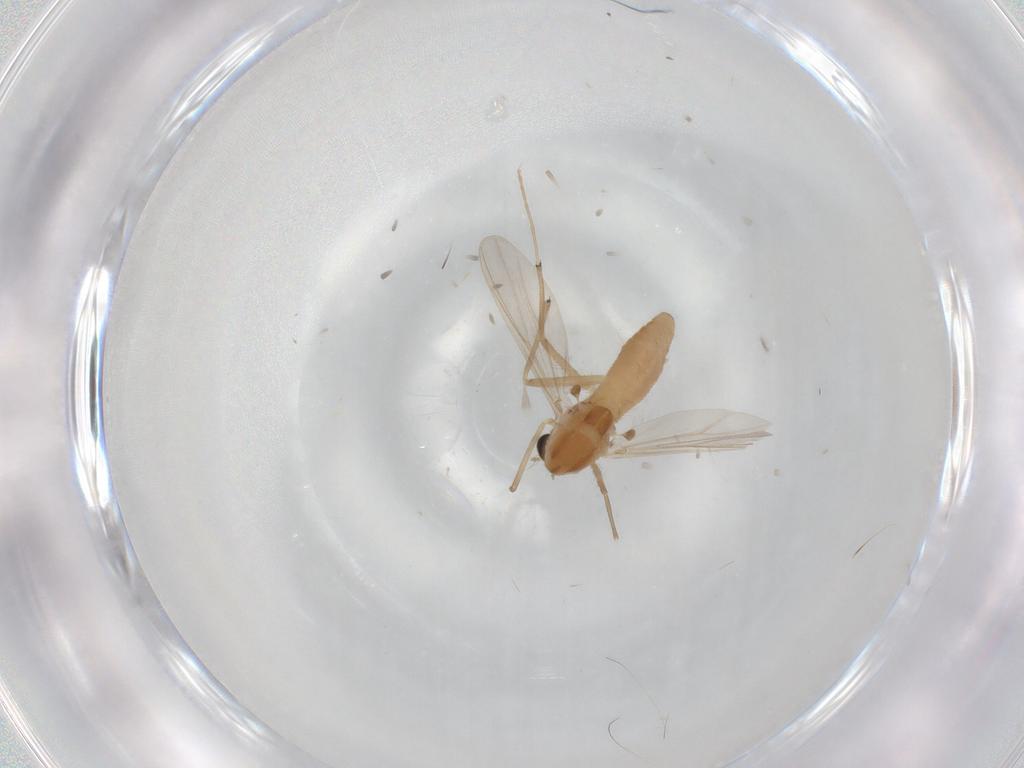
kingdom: Animalia
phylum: Arthropoda
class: Insecta
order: Diptera
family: Chironomidae
